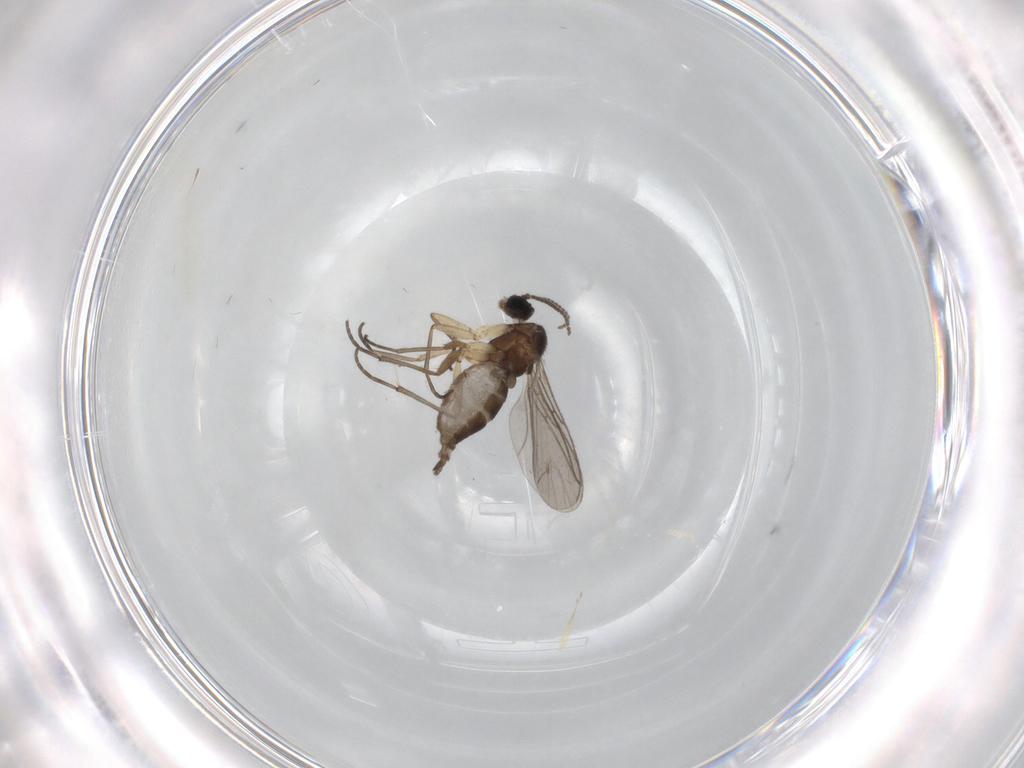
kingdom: Animalia
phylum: Arthropoda
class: Insecta
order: Diptera
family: Sciaridae
